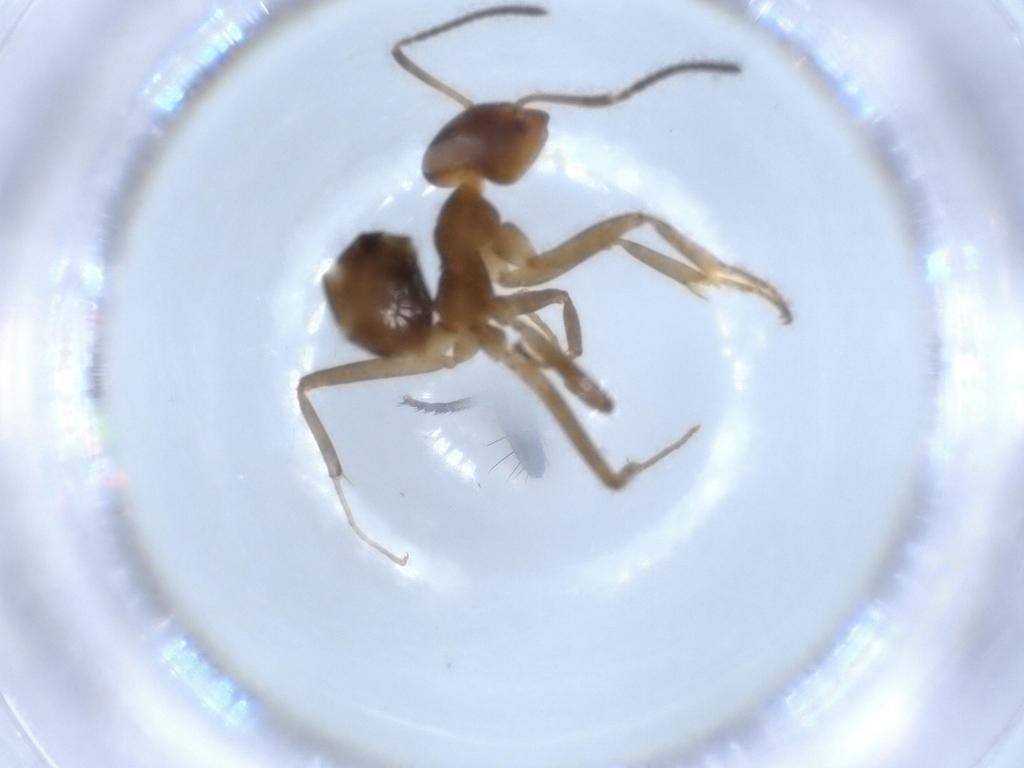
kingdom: Animalia
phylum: Arthropoda
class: Insecta
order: Hymenoptera
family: Formicidae
